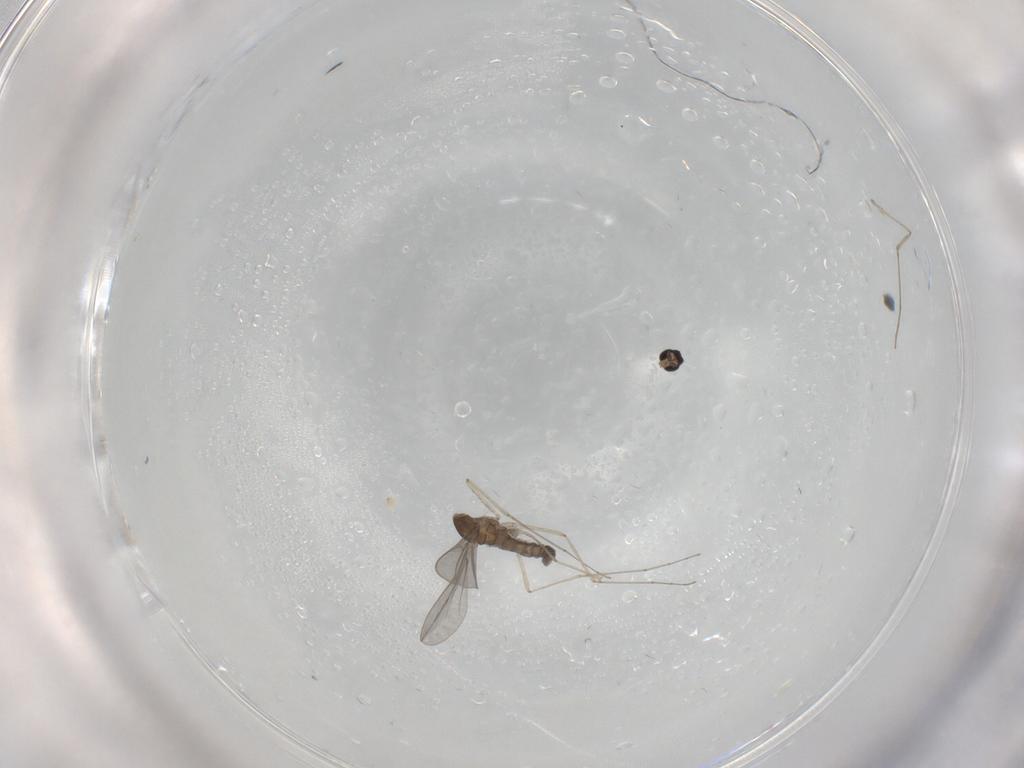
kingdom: Animalia
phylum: Arthropoda
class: Insecta
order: Diptera
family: Cecidomyiidae
